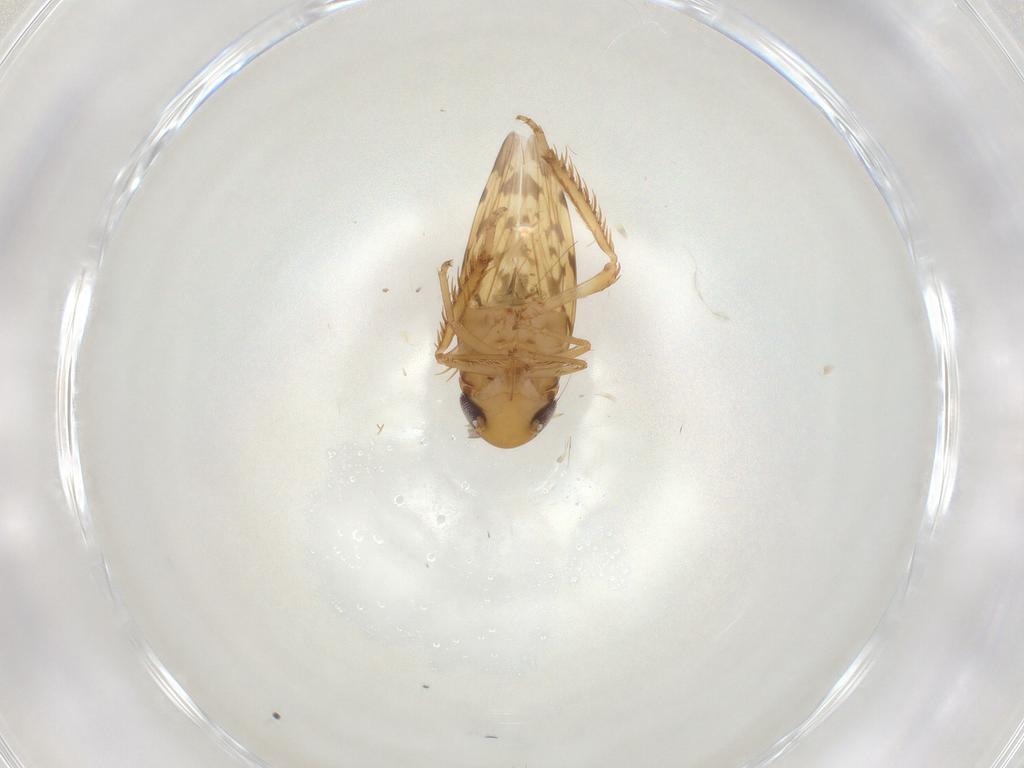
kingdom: Animalia
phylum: Arthropoda
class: Insecta
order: Hemiptera
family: Cicadellidae
